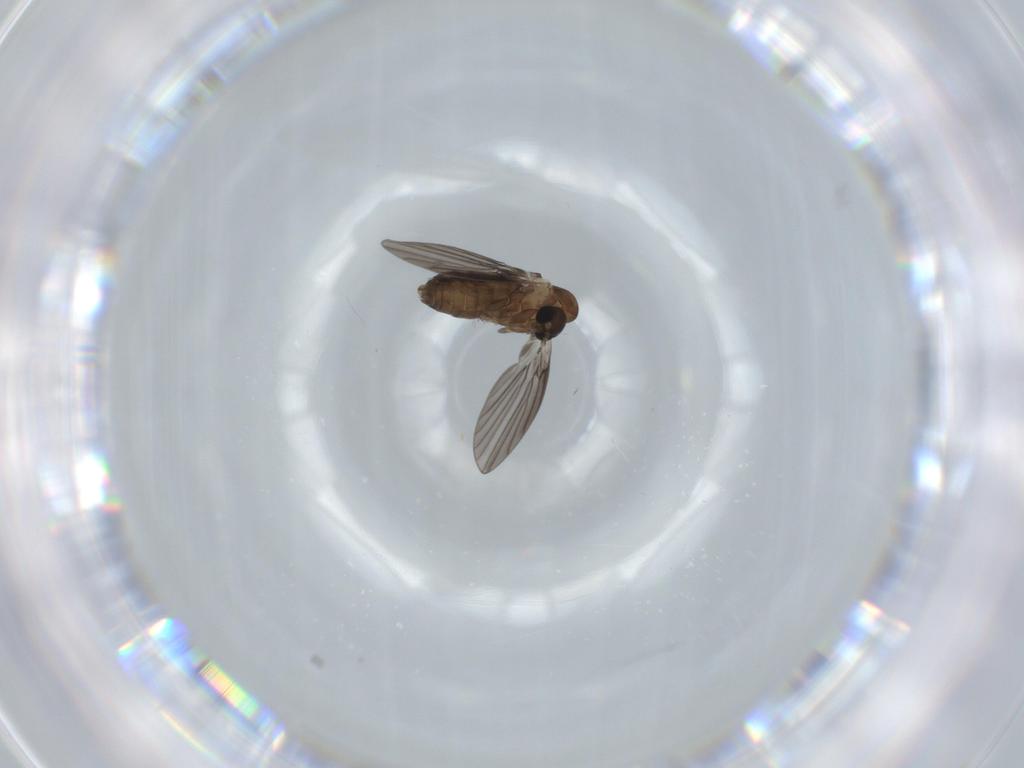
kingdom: Animalia
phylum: Arthropoda
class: Insecta
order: Diptera
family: Psychodidae
